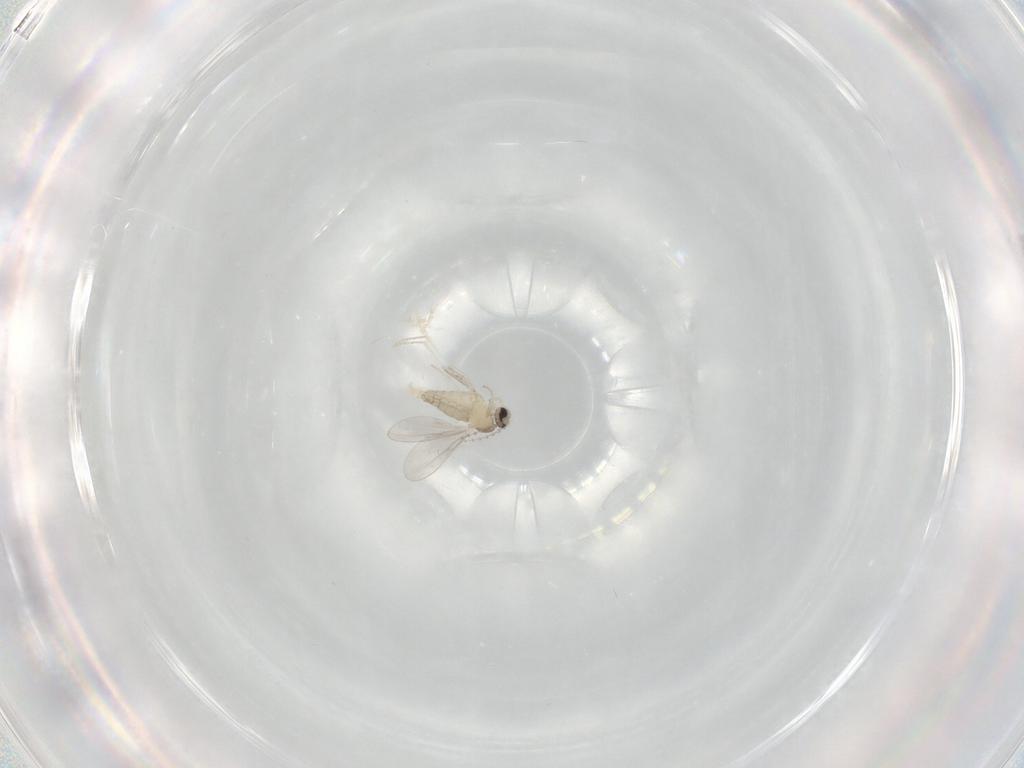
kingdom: Animalia
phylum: Arthropoda
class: Insecta
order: Diptera
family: Cecidomyiidae
